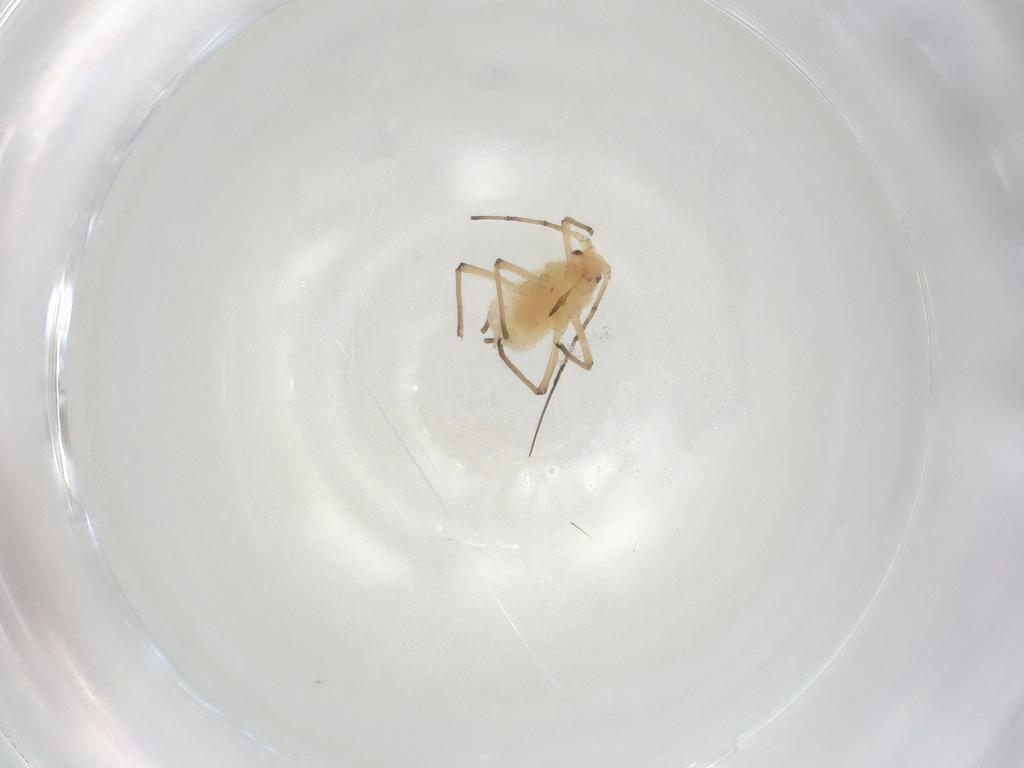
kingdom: Animalia
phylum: Arthropoda
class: Insecta
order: Hemiptera
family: Aphididae
